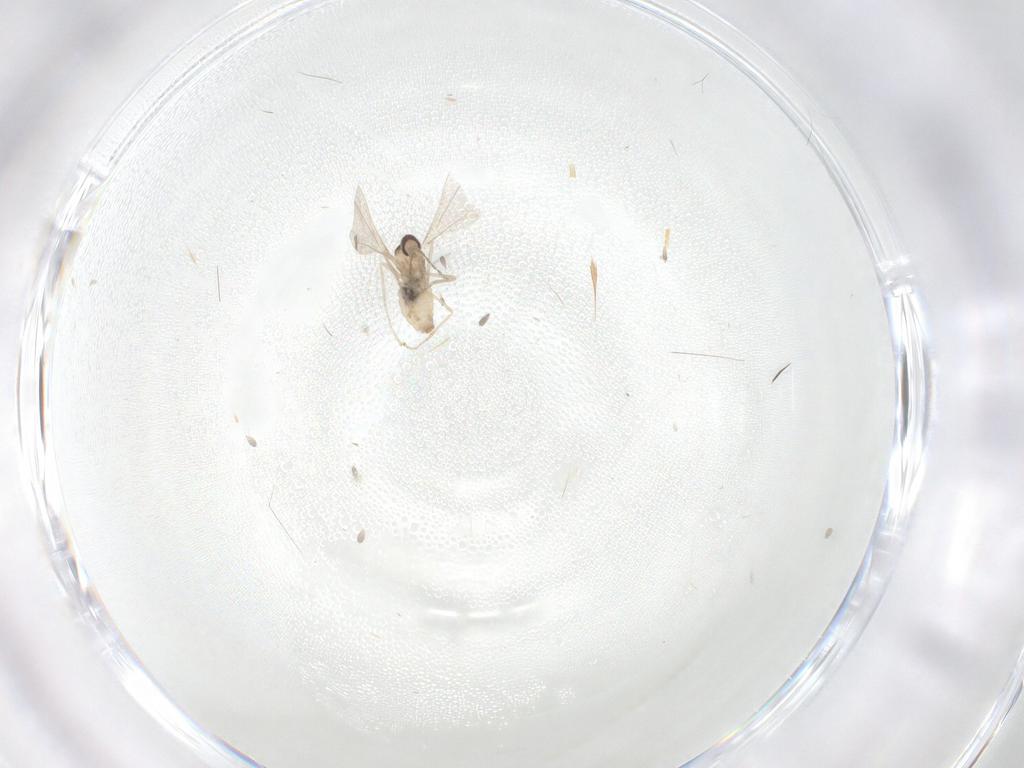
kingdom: Animalia
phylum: Arthropoda
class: Insecta
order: Diptera
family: Cecidomyiidae
